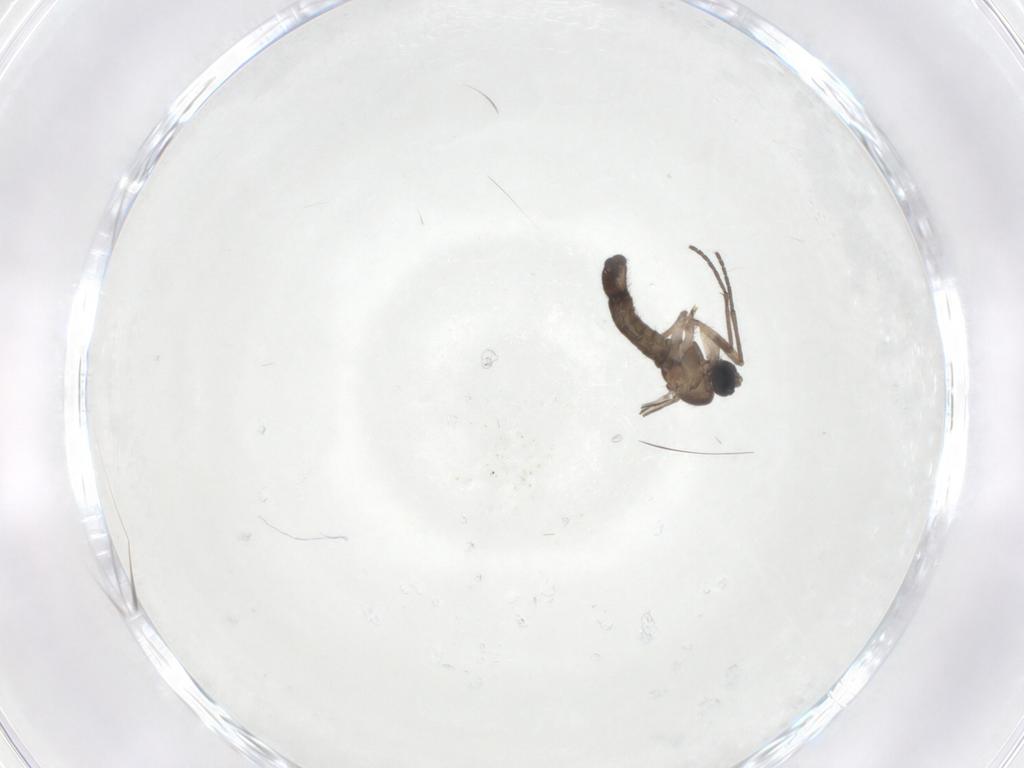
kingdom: Animalia
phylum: Arthropoda
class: Insecta
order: Diptera
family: Sciaridae
